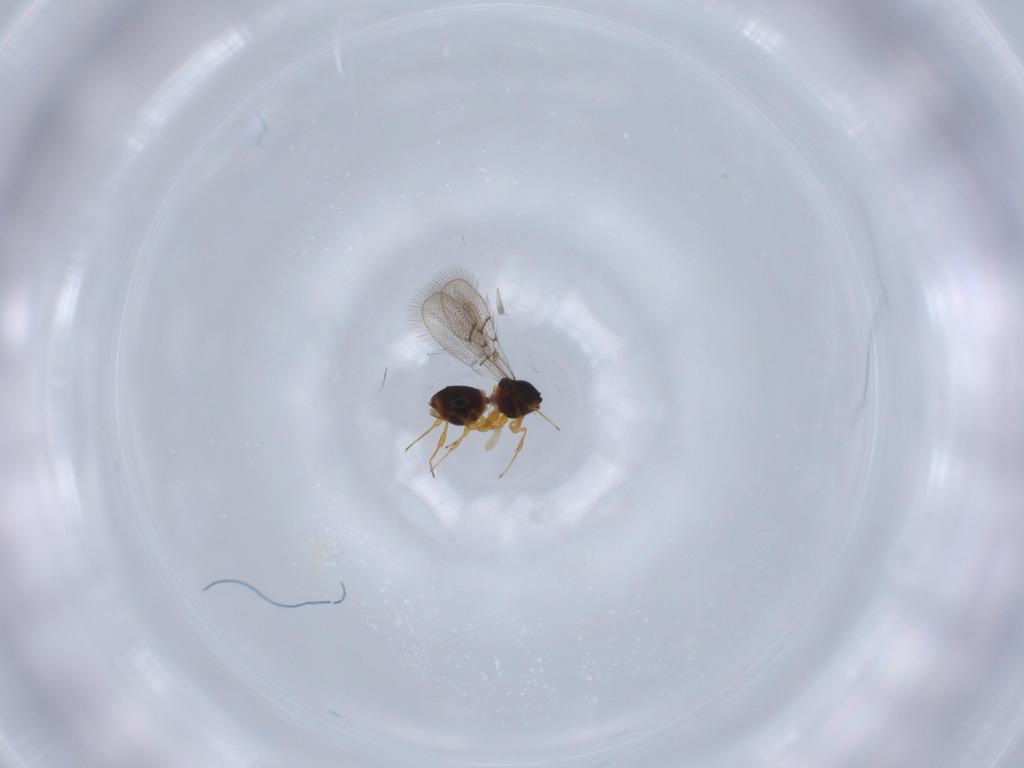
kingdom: Animalia
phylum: Arthropoda
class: Insecta
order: Hymenoptera
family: Figitidae
